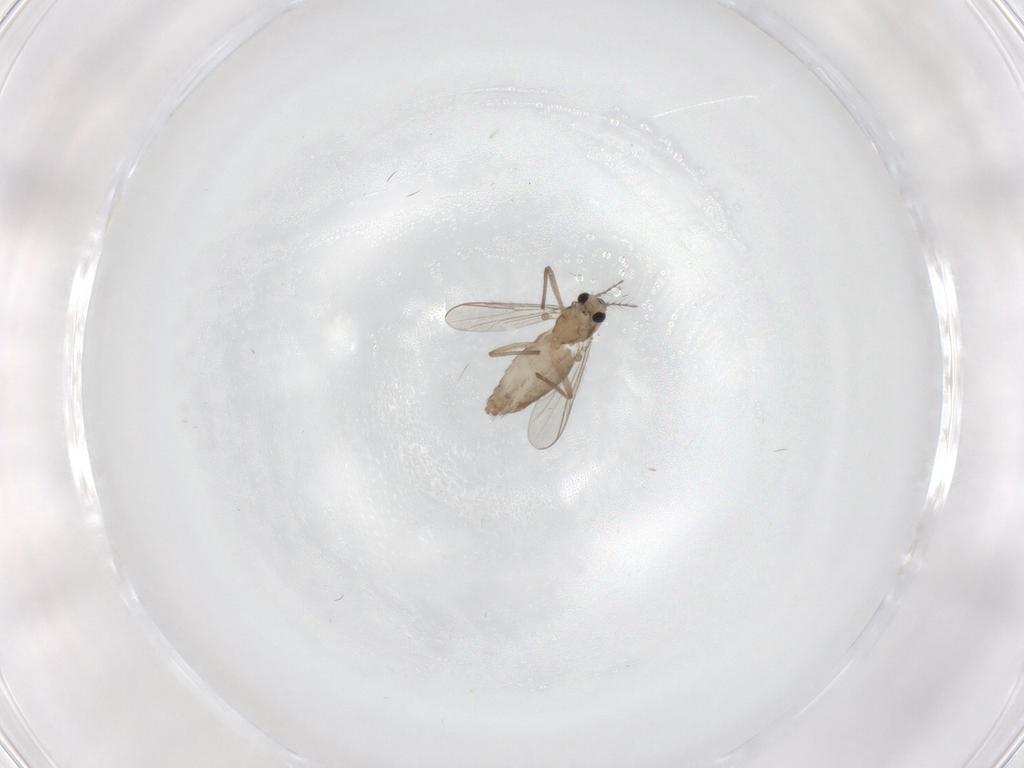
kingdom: Animalia
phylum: Arthropoda
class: Insecta
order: Diptera
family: Chironomidae
